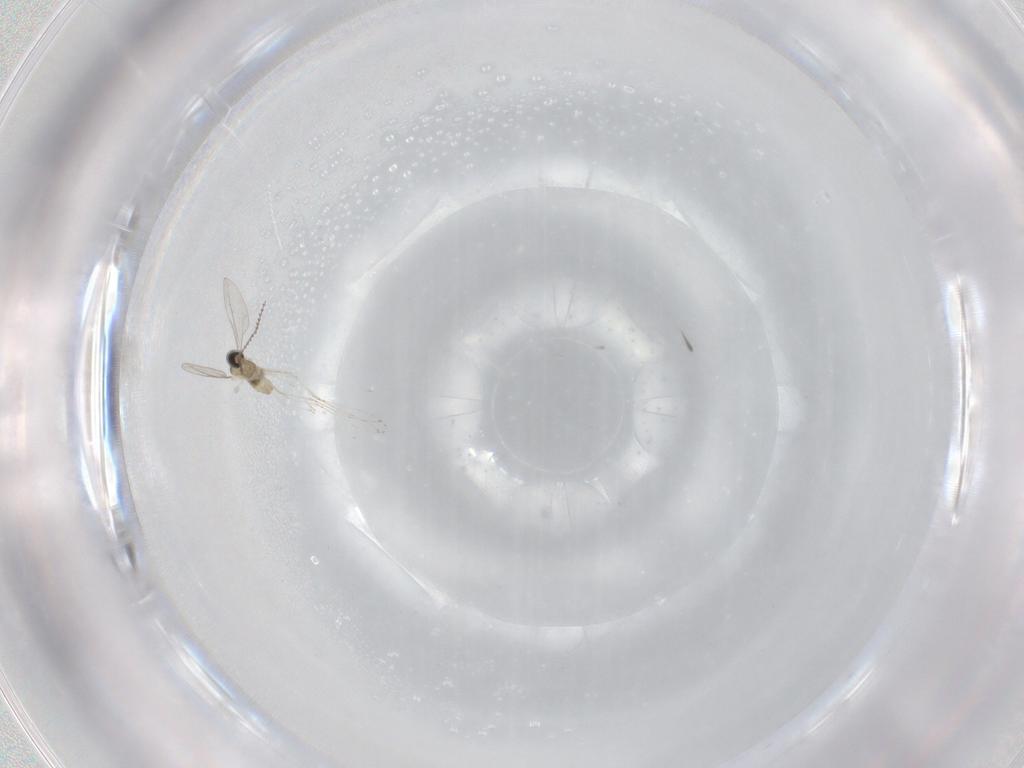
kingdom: Animalia
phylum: Arthropoda
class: Insecta
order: Diptera
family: Cecidomyiidae
